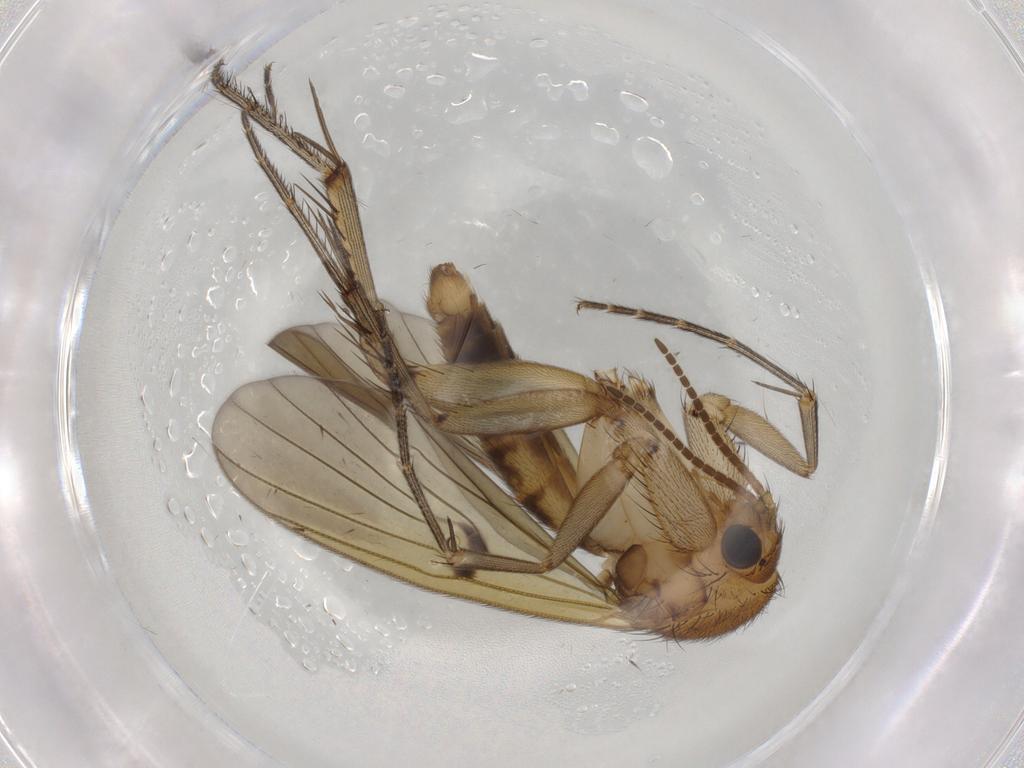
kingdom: Animalia
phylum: Arthropoda
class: Insecta
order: Diptera
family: Mycetophilidae
